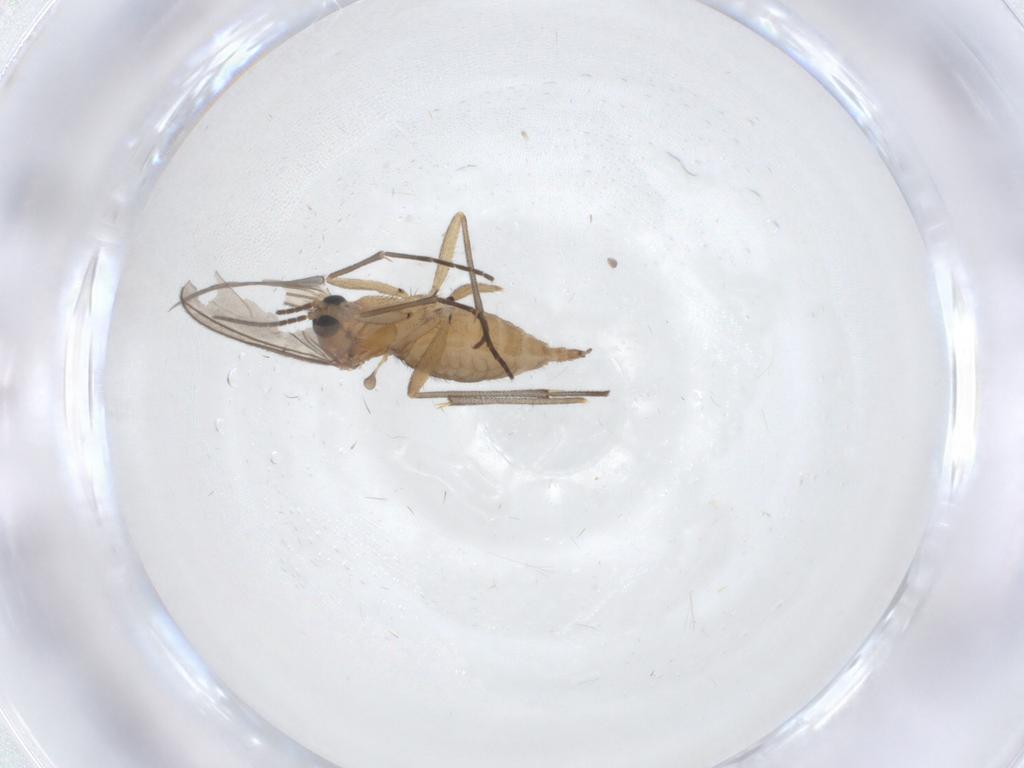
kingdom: Animalia
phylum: Arthropoda
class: Insecta
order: Diptera
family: Sciaridae
